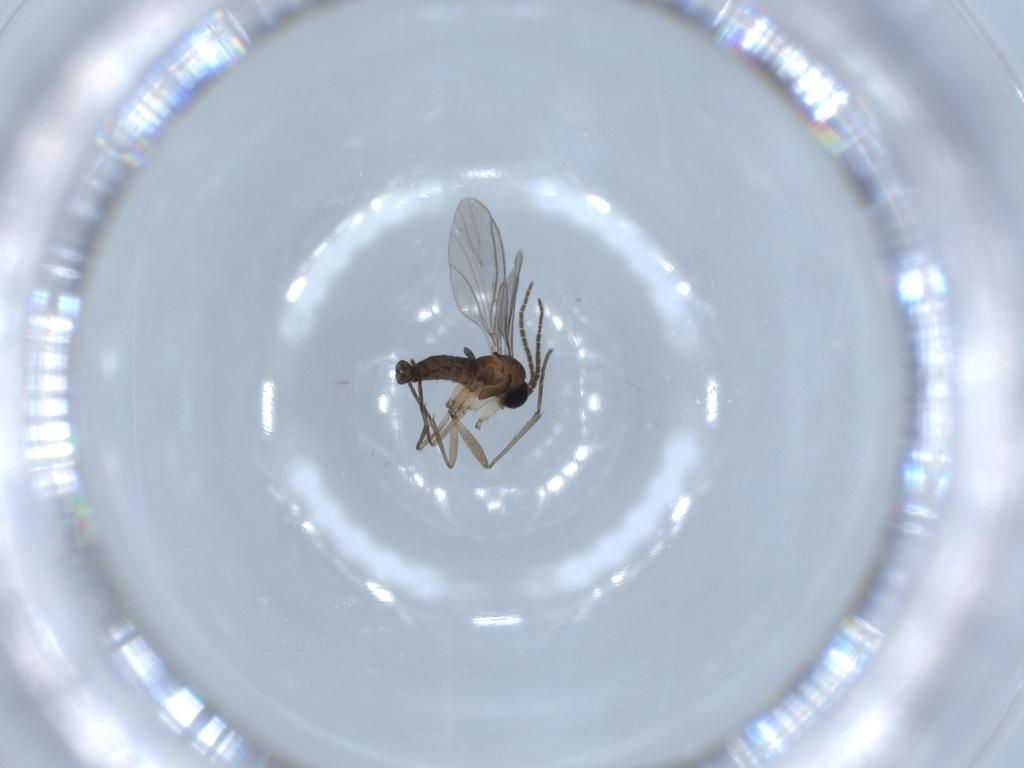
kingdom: Animalia
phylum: Arthropoda
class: Insecta
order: Diptera
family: Sciaridae
